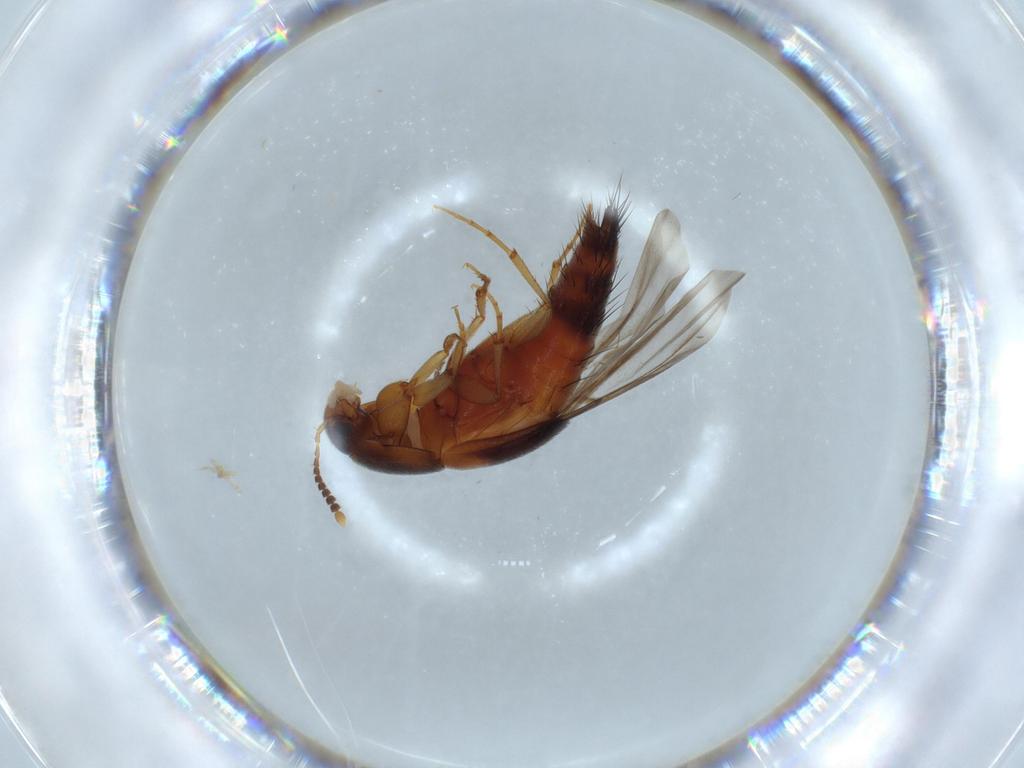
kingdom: Animalia
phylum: Arthropoda
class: Insecta
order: Coleoptera
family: Staphylinidae
